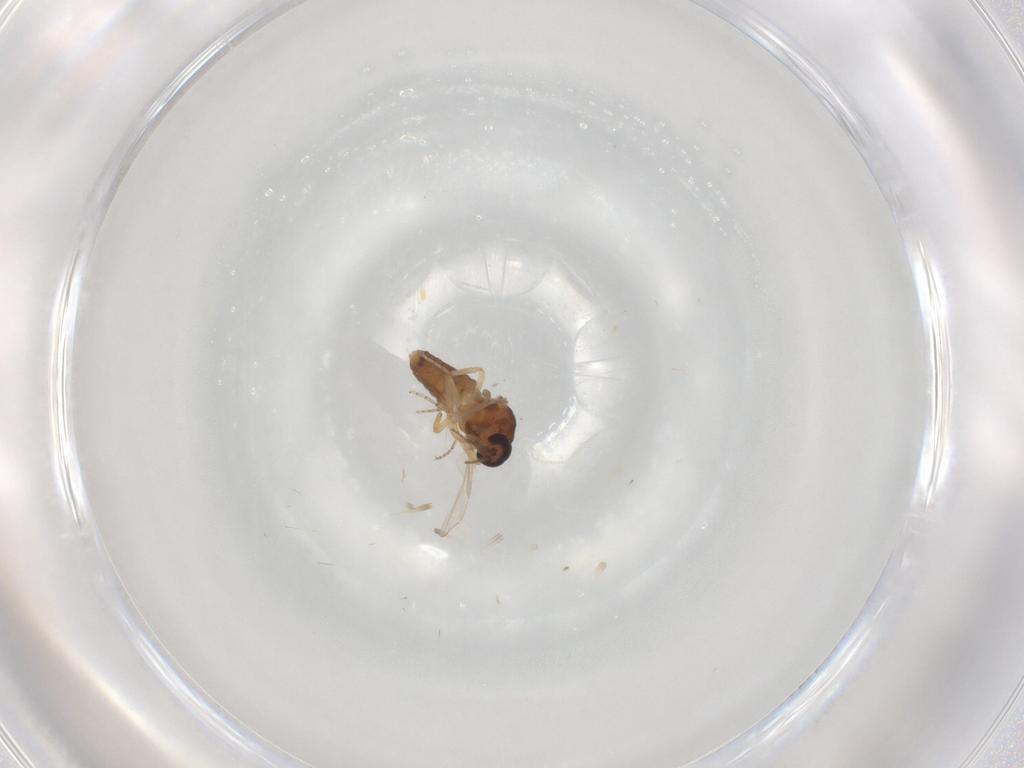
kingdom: Animalia
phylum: Arthropoda
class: Insecta
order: Diptera
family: Ceratopogonidae
